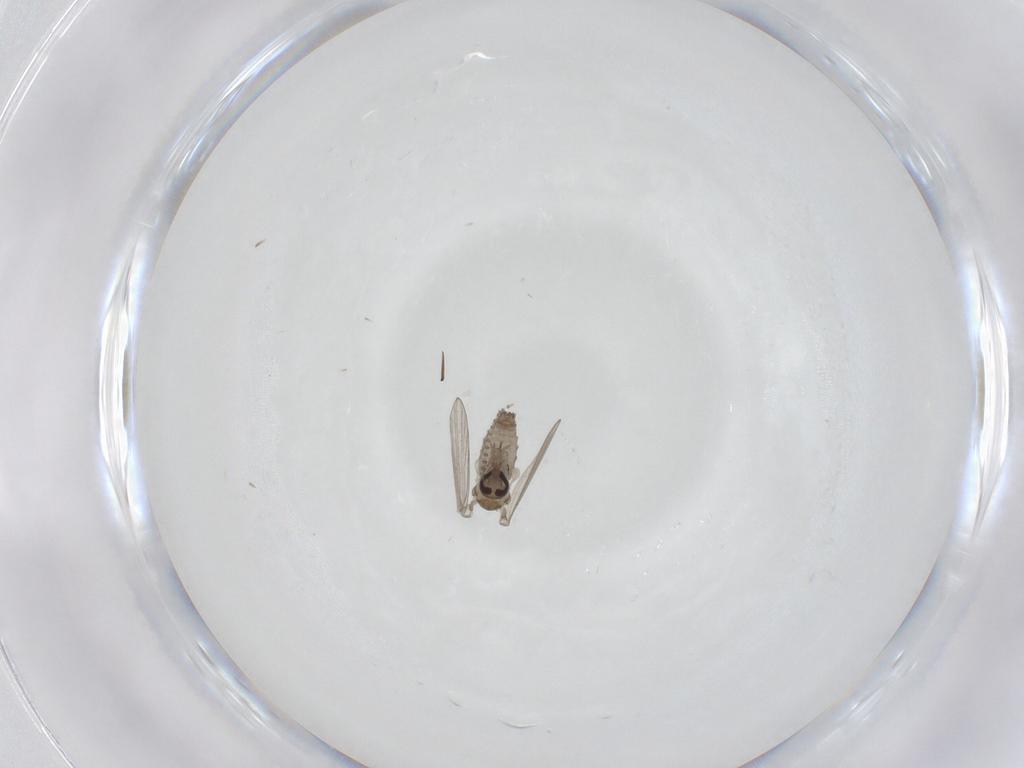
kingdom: Animalia
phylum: Arthropoda
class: Insecta
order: Diptera
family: Psychodidae
